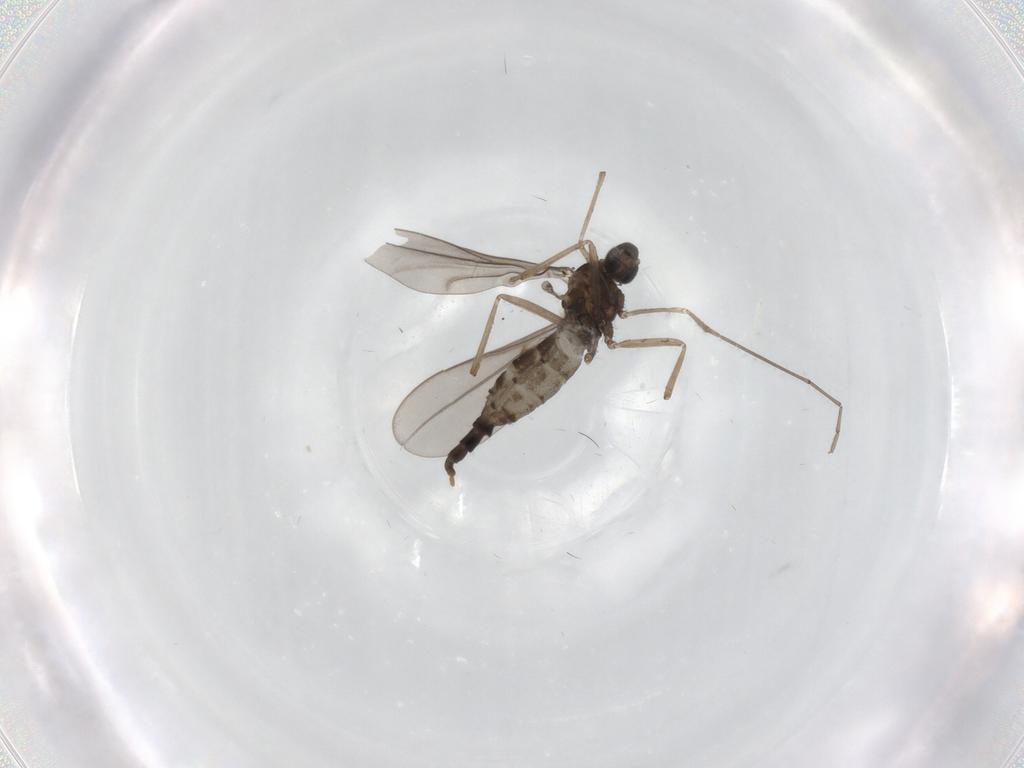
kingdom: Animalia
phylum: Arthropoda
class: Insecta
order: Diptera
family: Cecidomyiidae
